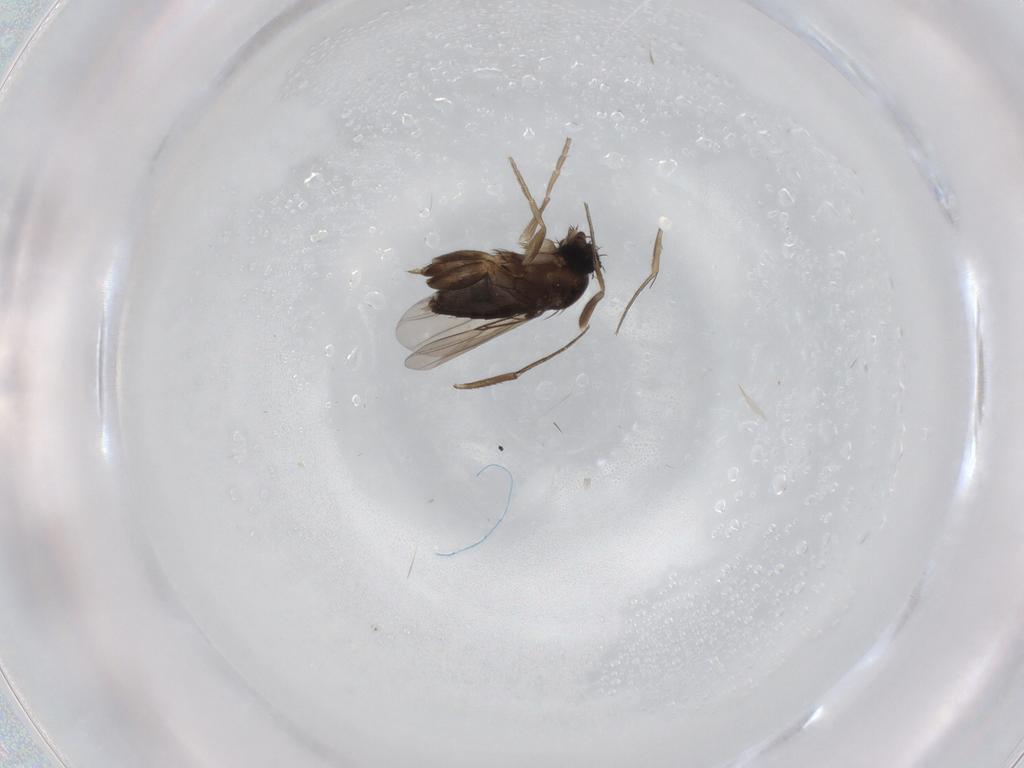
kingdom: Animalia
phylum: Arthropoda
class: Insecta
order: Diptera
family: Phoridae
